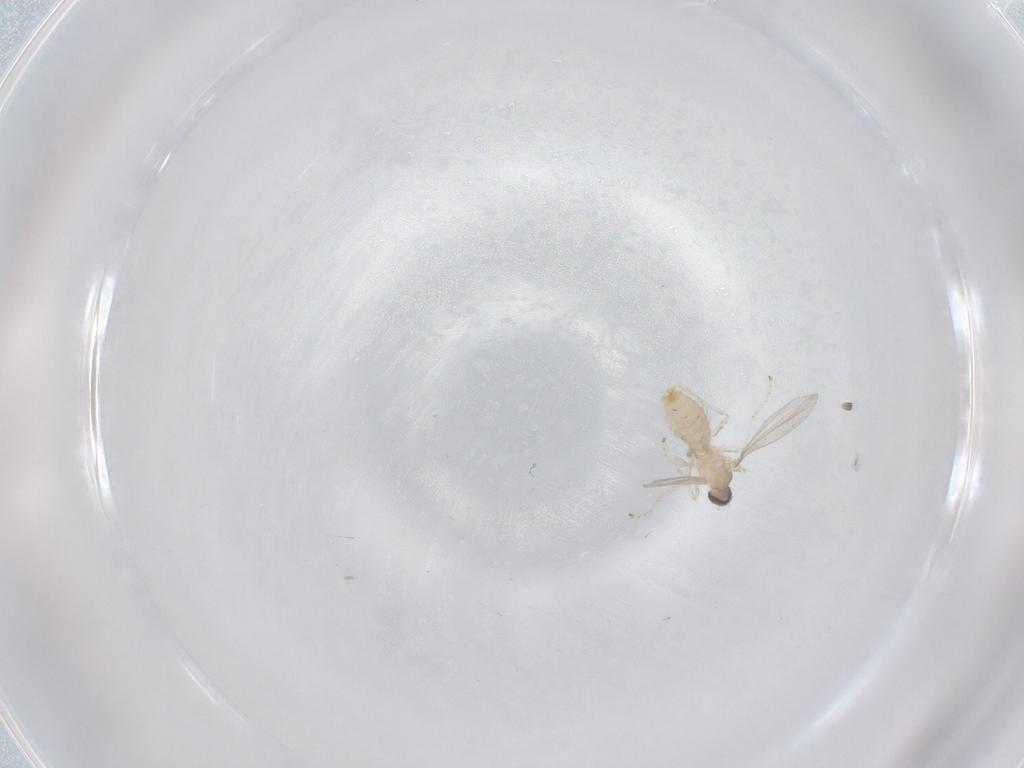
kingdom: Animalia
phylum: Arthropoda
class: Insecta
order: Diptera
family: Cecidomyiidae
